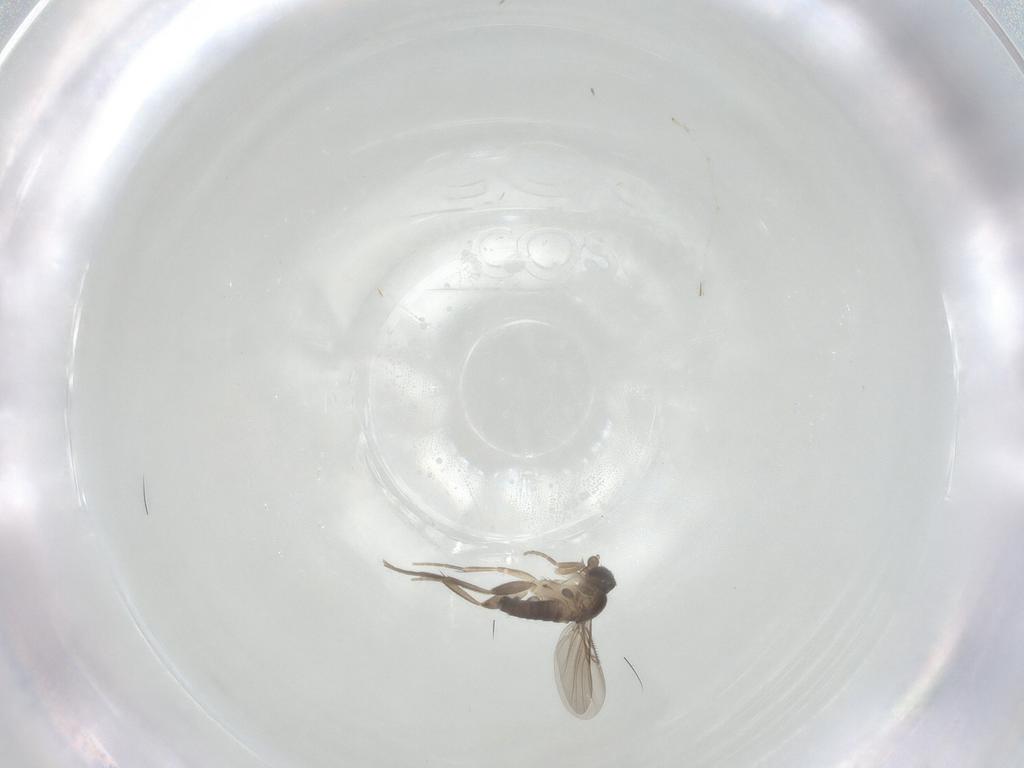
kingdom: Animalia
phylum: Arthropoda
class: Insecta
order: Diptera
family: Phoridae
